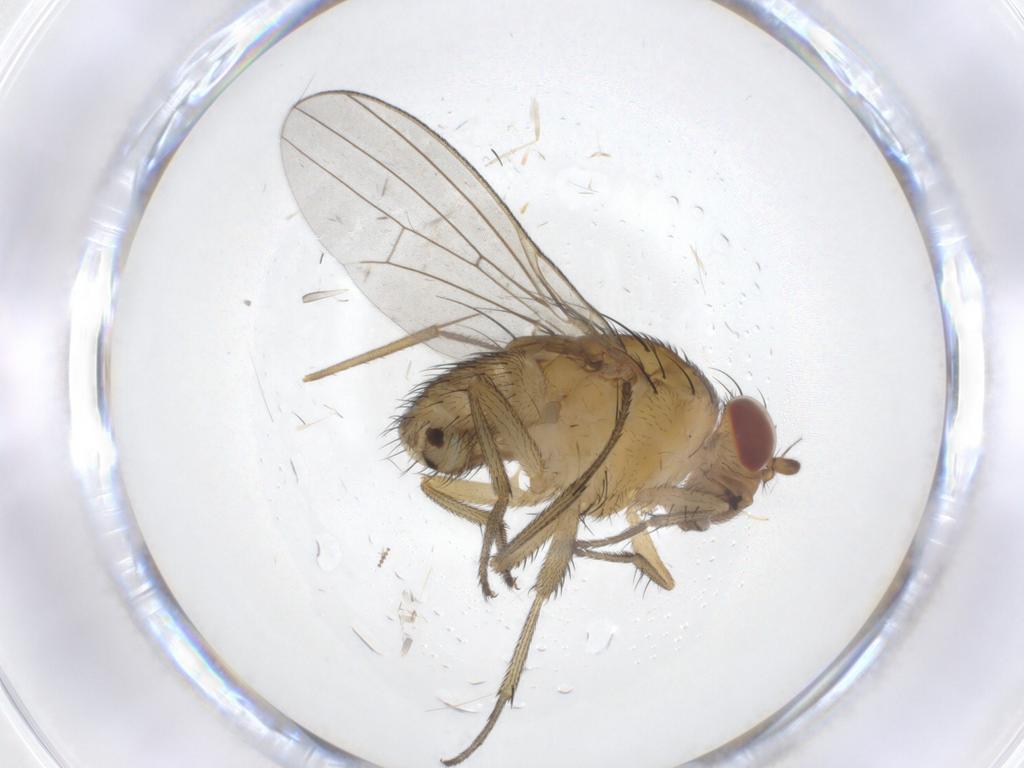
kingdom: Animalia
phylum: Arthropoda
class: Insecta
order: Diptera
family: Cecidomyiidae
